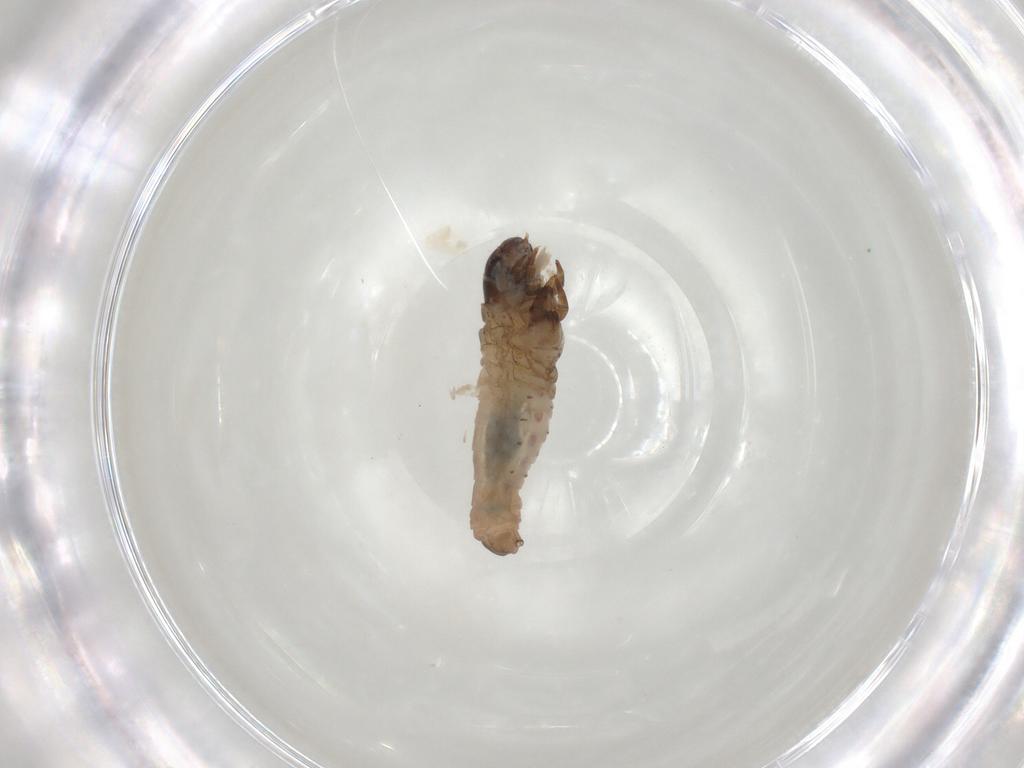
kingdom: Animalia
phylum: Arthropoda
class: Insecta
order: Lepidoptera
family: Psychidae
